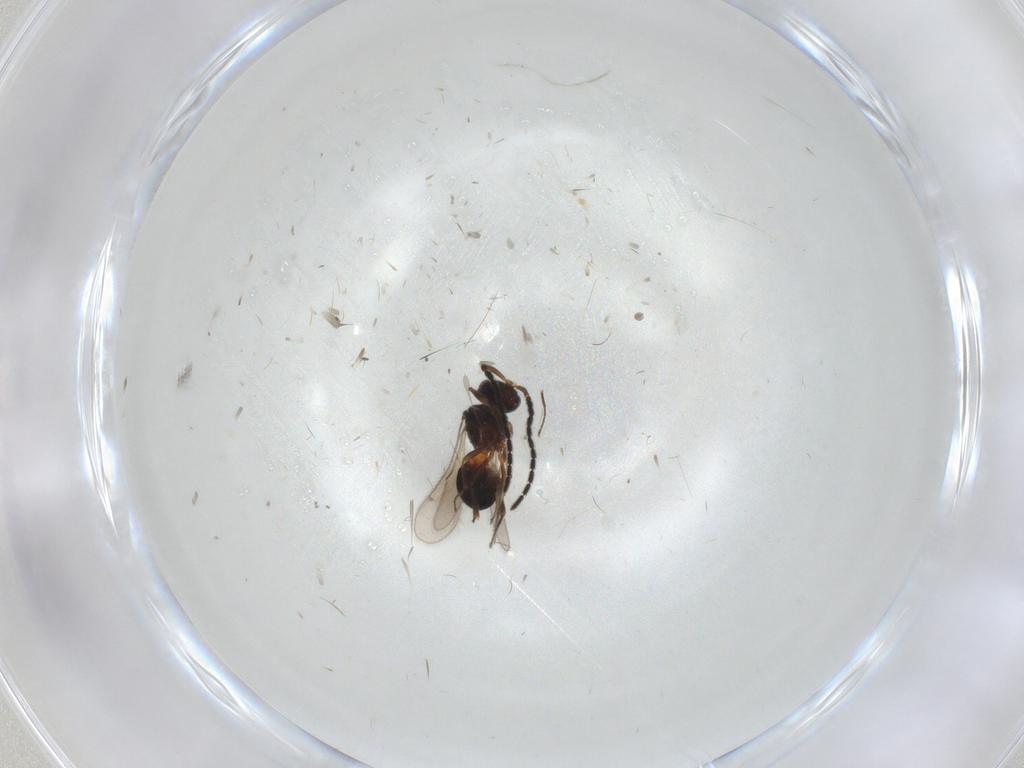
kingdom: Animalia
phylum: Arthropoda
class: Insecta
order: Hymenoptera
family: Scelionidae
